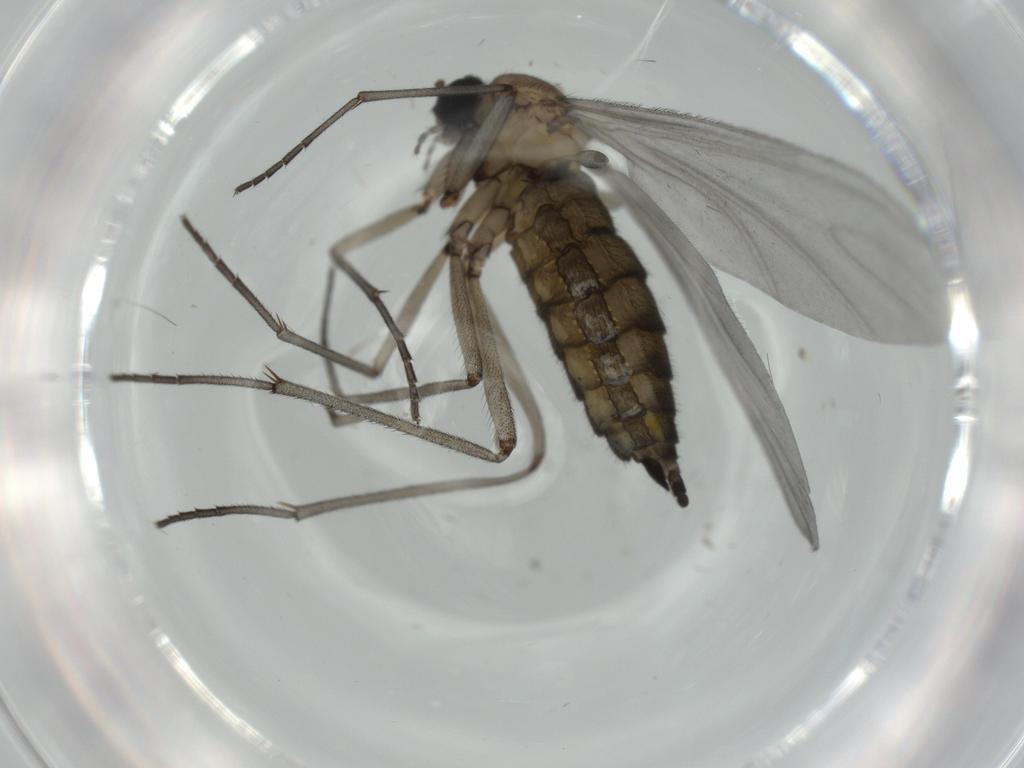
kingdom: Animalia
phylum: Arthropoda
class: Insecta
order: Diptera
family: Sciaridae
